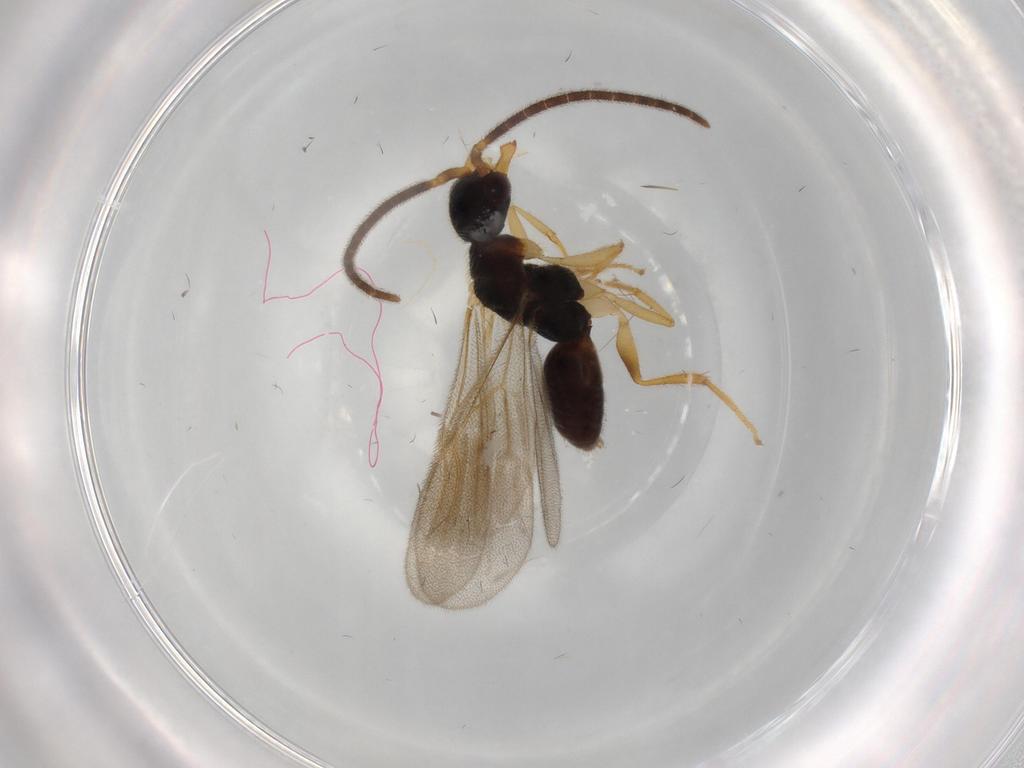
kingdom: Animalia
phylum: Arthropoda
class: Insecta
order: Hymenoptera
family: Bethylidae
